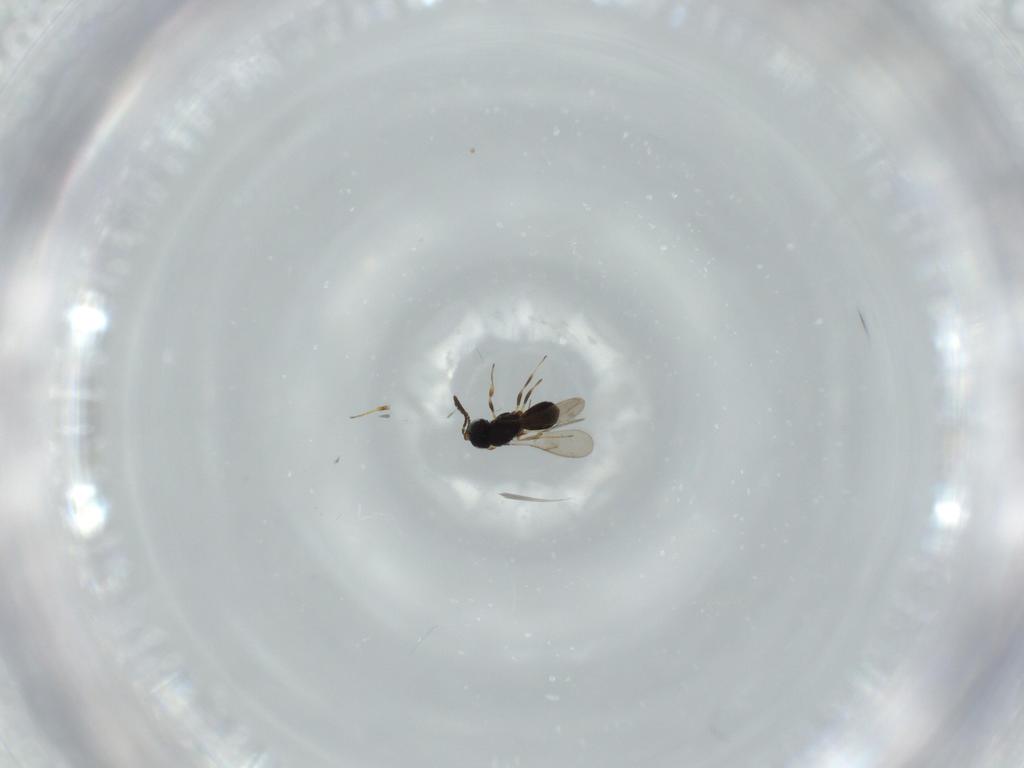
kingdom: Animalia
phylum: Arthropoda
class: Insecta
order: Hymenoptera
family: Scelionidae
